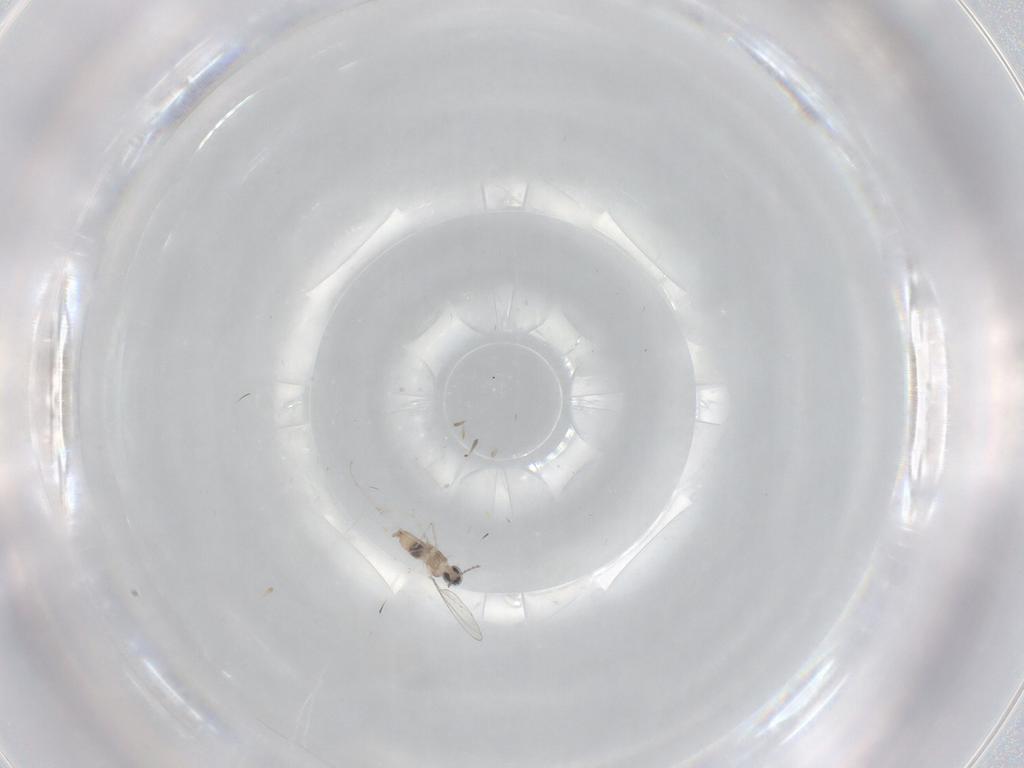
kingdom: Animalia
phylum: Arthropoda
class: Insecta
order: Diptera
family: Cecidomyiidae
